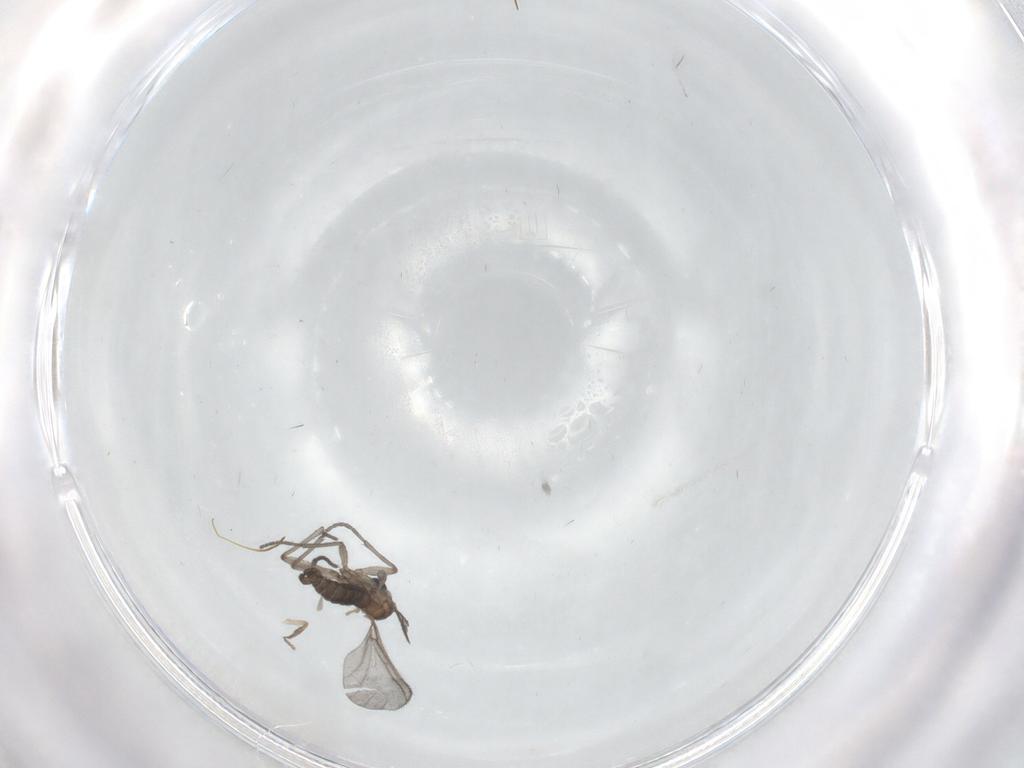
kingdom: Animalia
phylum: Arthropoda
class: Insecta
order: Diptera
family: Sciaridae
